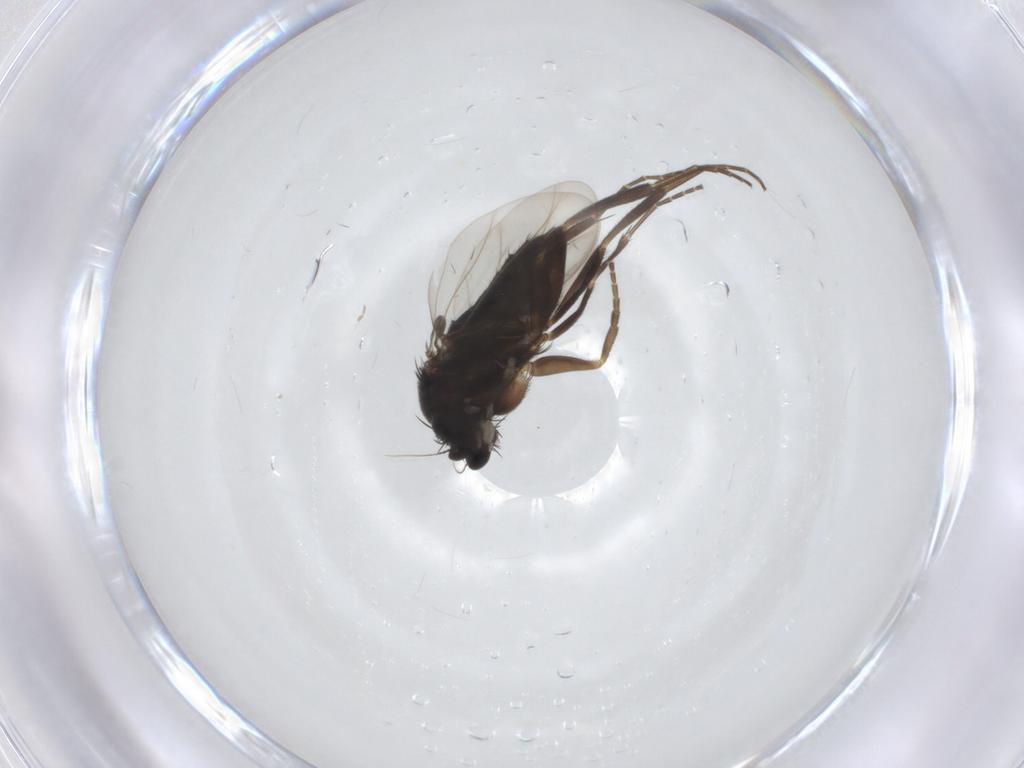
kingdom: Animalia
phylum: Arthropoda
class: Insecta
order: Diptera
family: Phoridae
